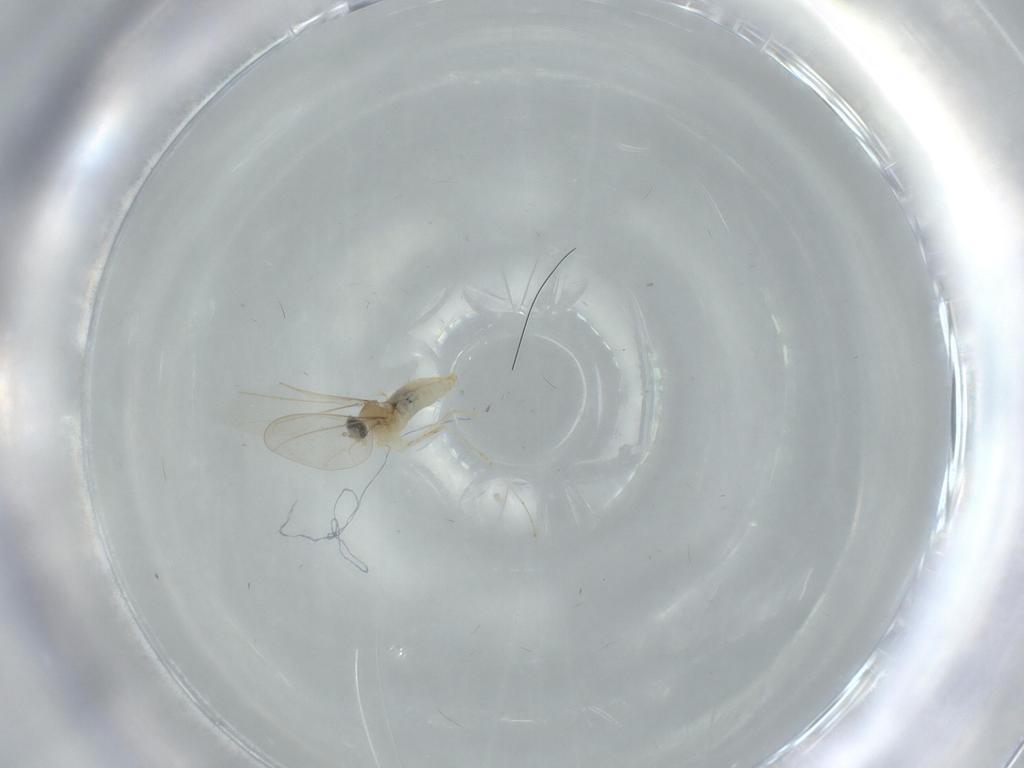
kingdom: Animalia
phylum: Arthropoda
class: Insecta
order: Diptera
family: Cecidomyiidae
